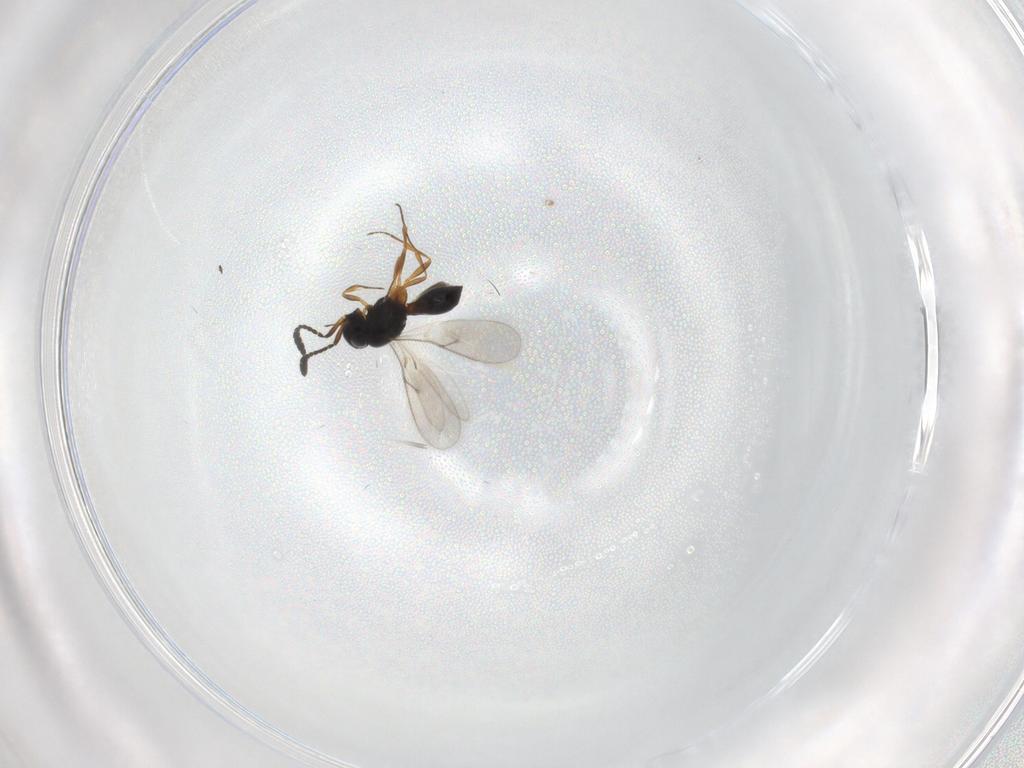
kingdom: Animalia
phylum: Arthropoda
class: Insecta
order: Hymenoptera
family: Scelionidae
